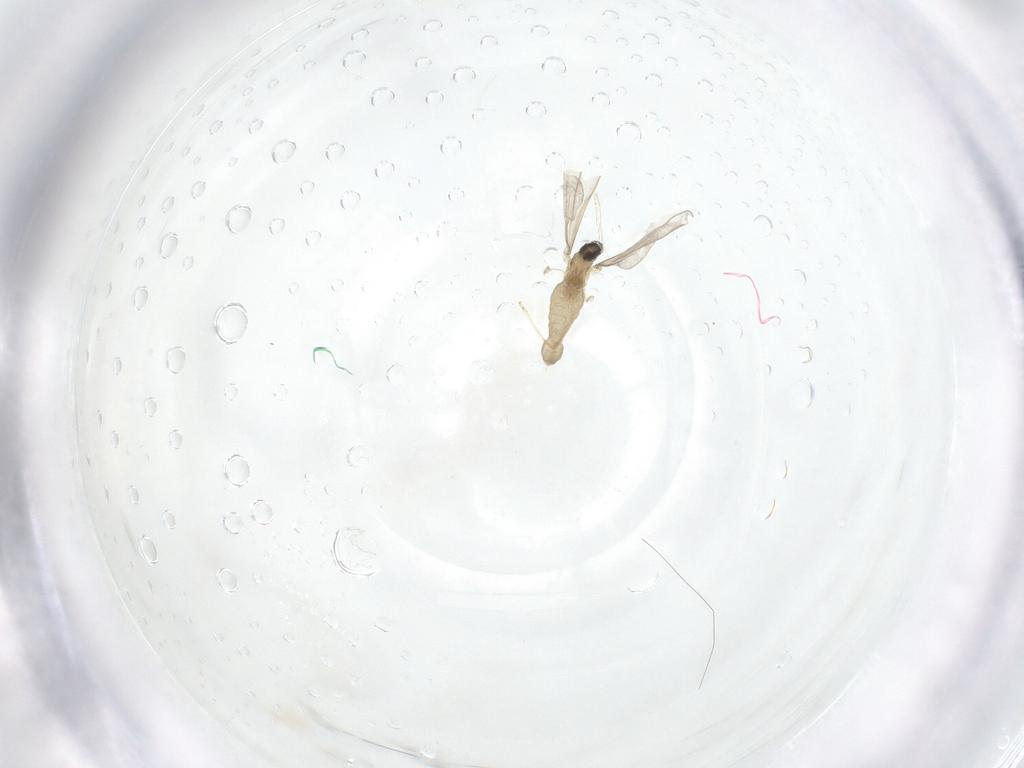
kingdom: Animalia
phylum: Arthropoda
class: Insecta
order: Diptera
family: Cecidomyiidae
